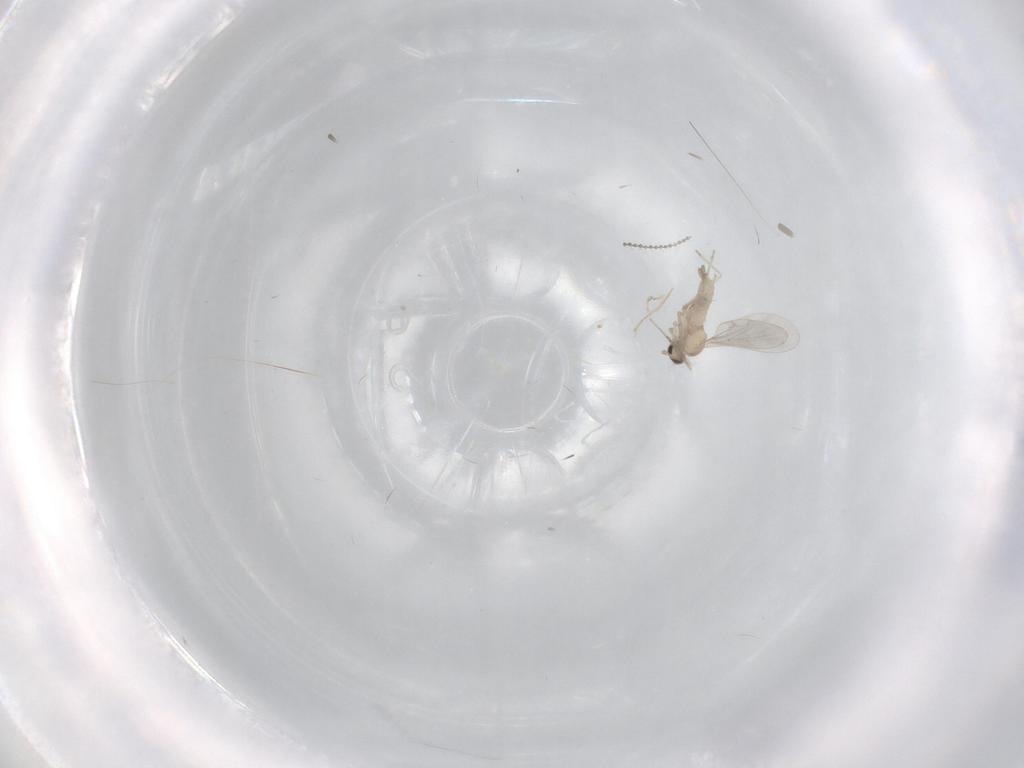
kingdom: Animalia
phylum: Arthropoda
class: Insecta
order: Diptera
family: Cecidomyiidae
